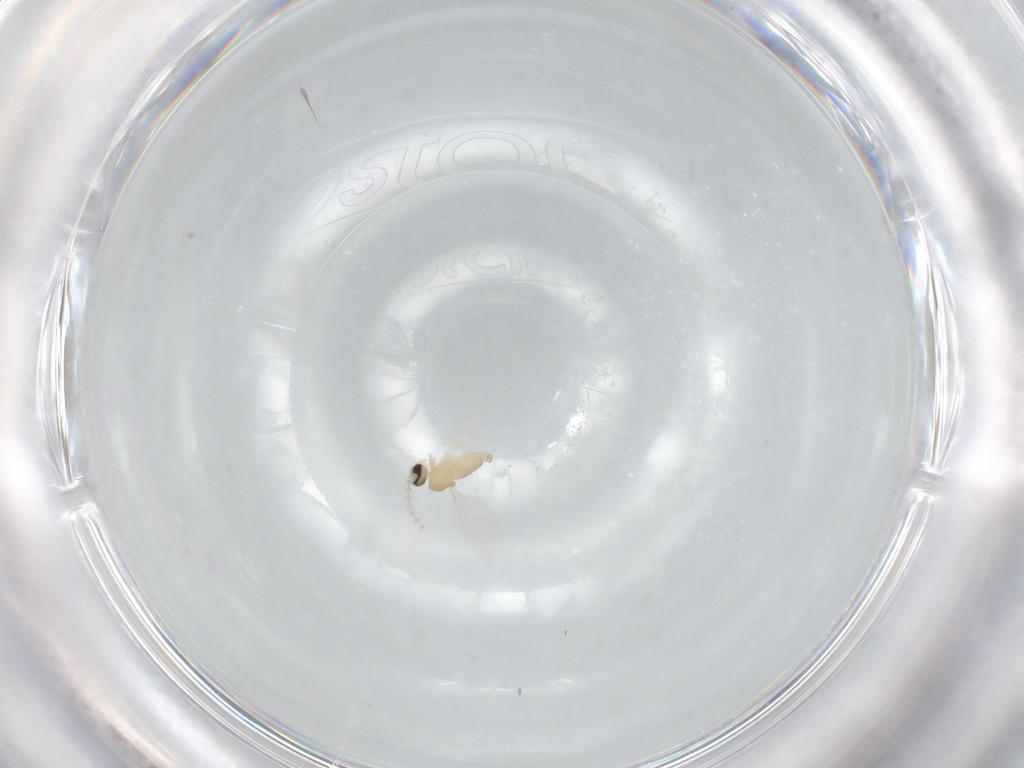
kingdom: Animalia
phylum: Arthropoda
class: Insecta
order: Diptera
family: Cecidomyiidae
